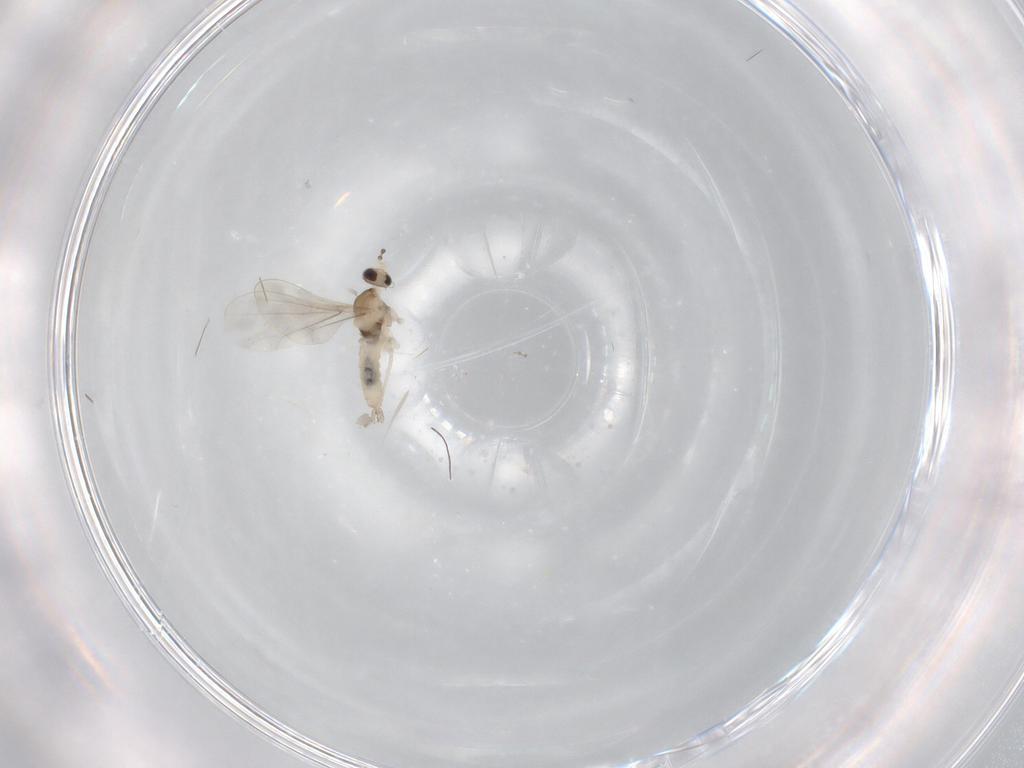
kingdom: Animalia
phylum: Arthropoda
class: Insecta
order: Diptera
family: Cecidomyiidae
